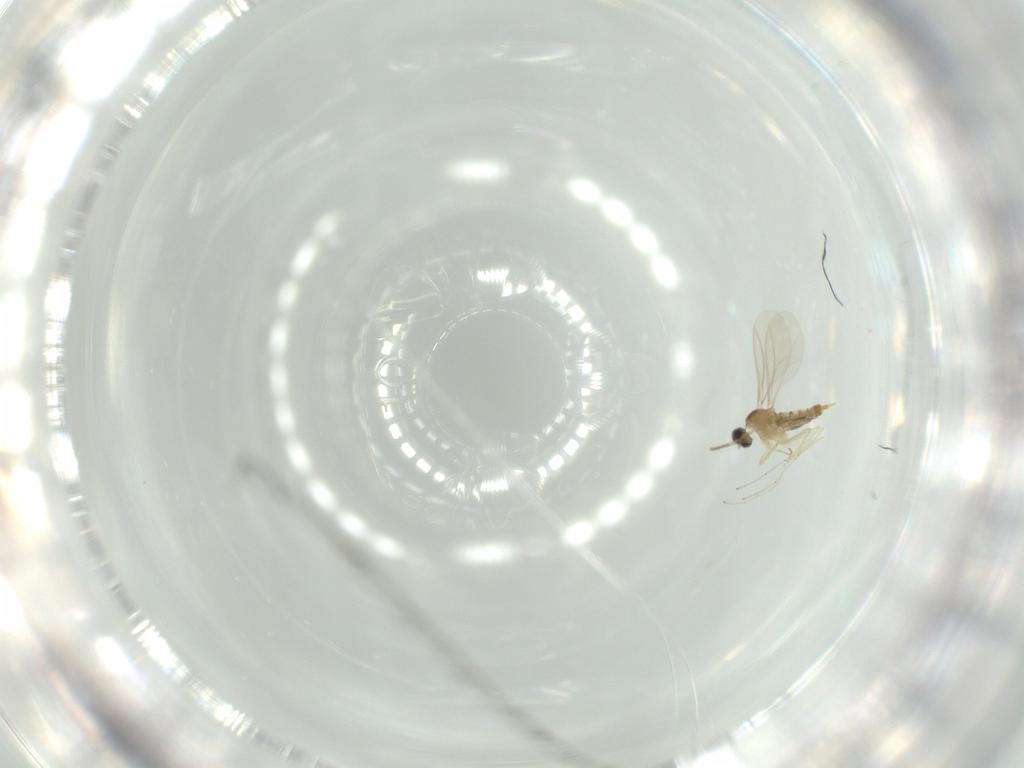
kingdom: Animalia
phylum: Arthropoda
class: Insecta
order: Diptera
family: Cecidomyiidae
